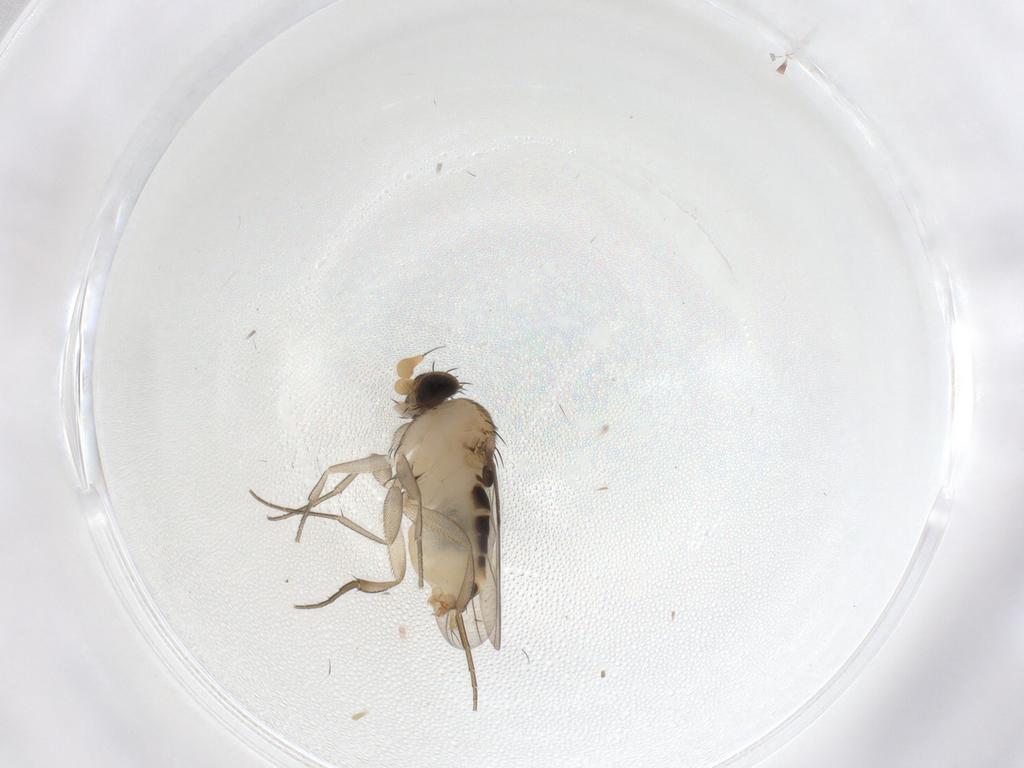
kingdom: Animalia
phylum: Arthropoda
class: Insecta
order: Diptera
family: Phoridae
